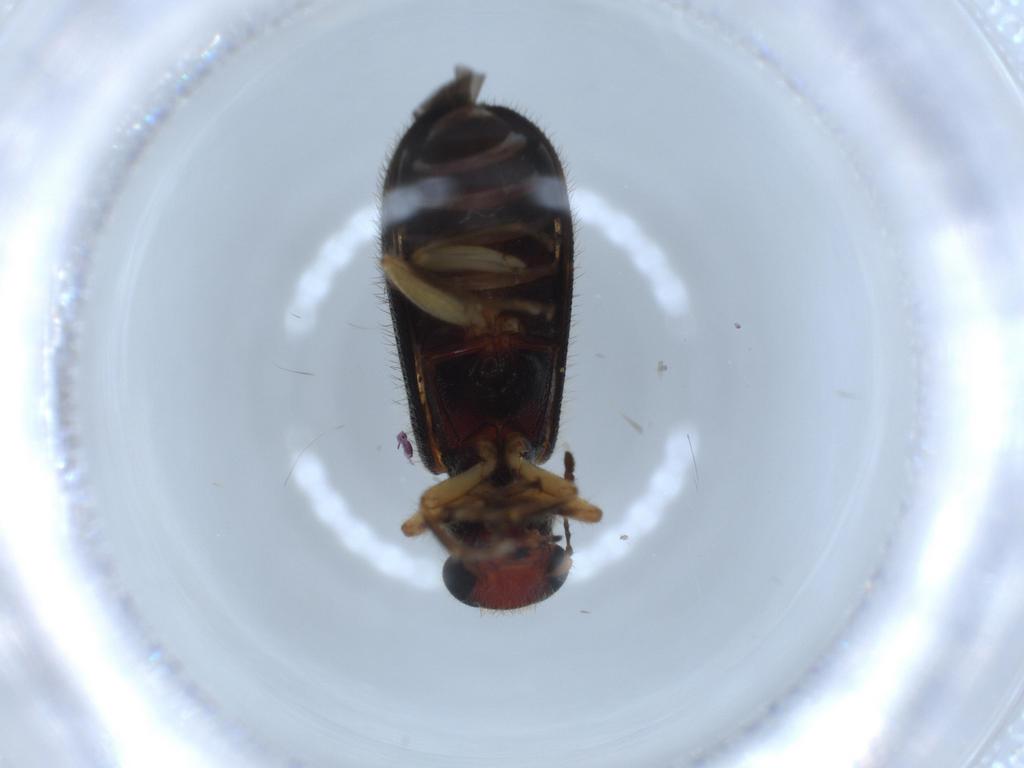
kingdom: Animalia
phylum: Arthropoda
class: Insecta
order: Coleoptera
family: Cleridae
